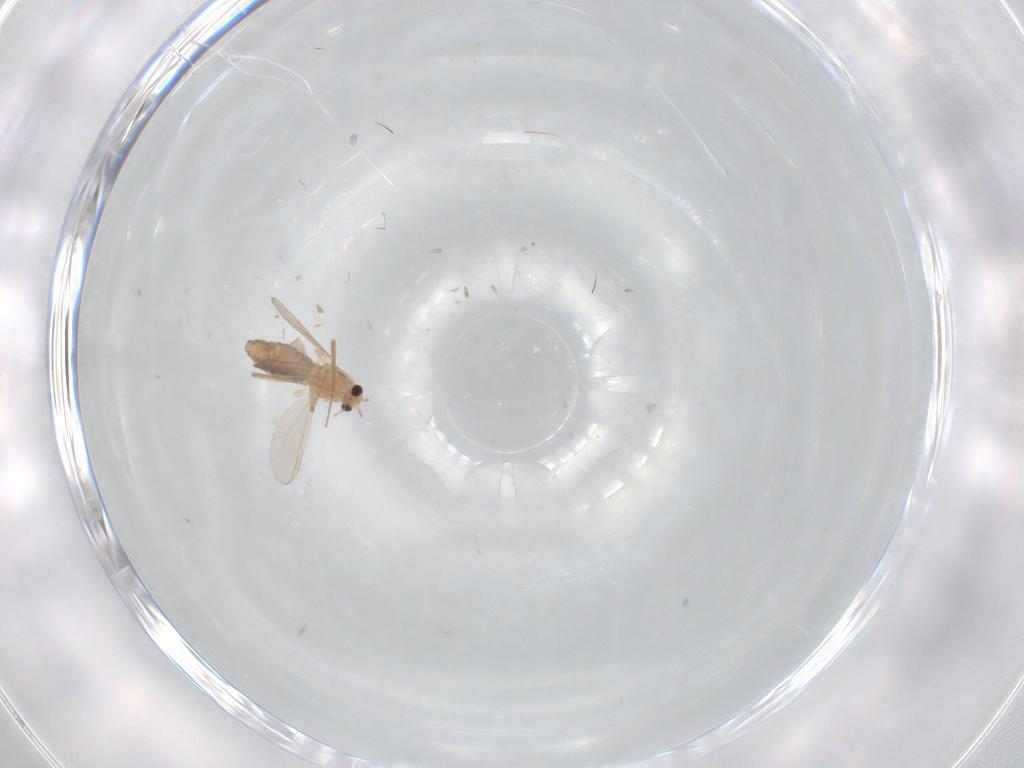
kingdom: Animalia
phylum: Arthropoda
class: Insecta
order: Diptera
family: Cecidomyiidae
